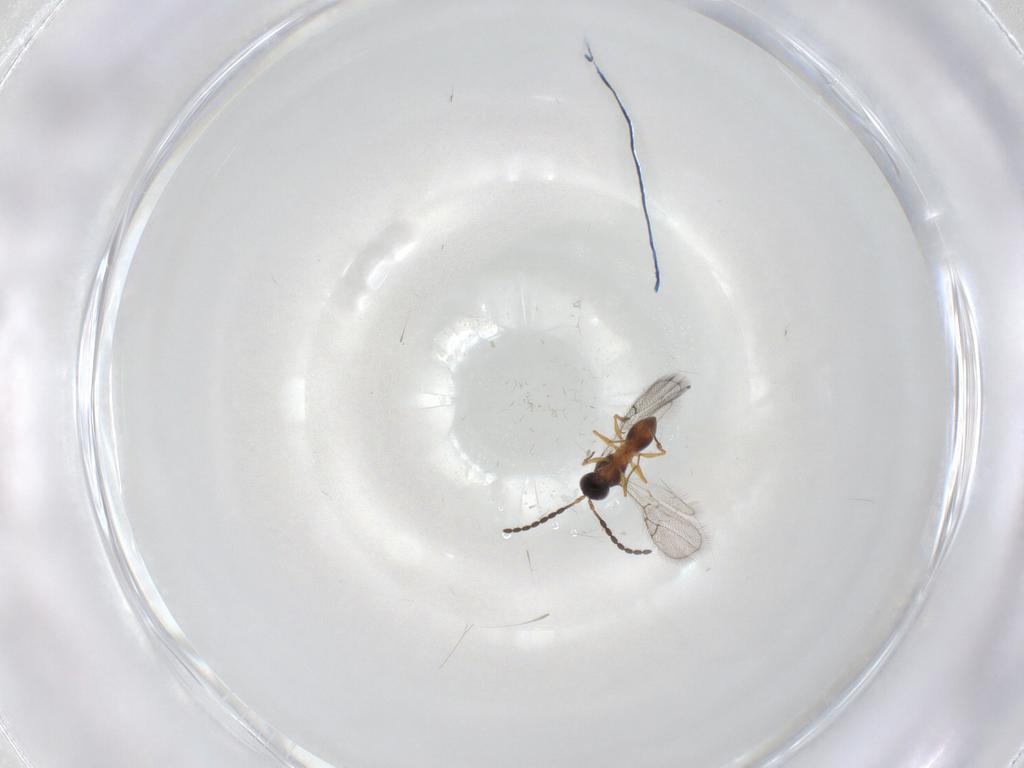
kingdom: Animalia
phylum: Arthropoda
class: Insecta
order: Hymenoptera
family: Figitidae
